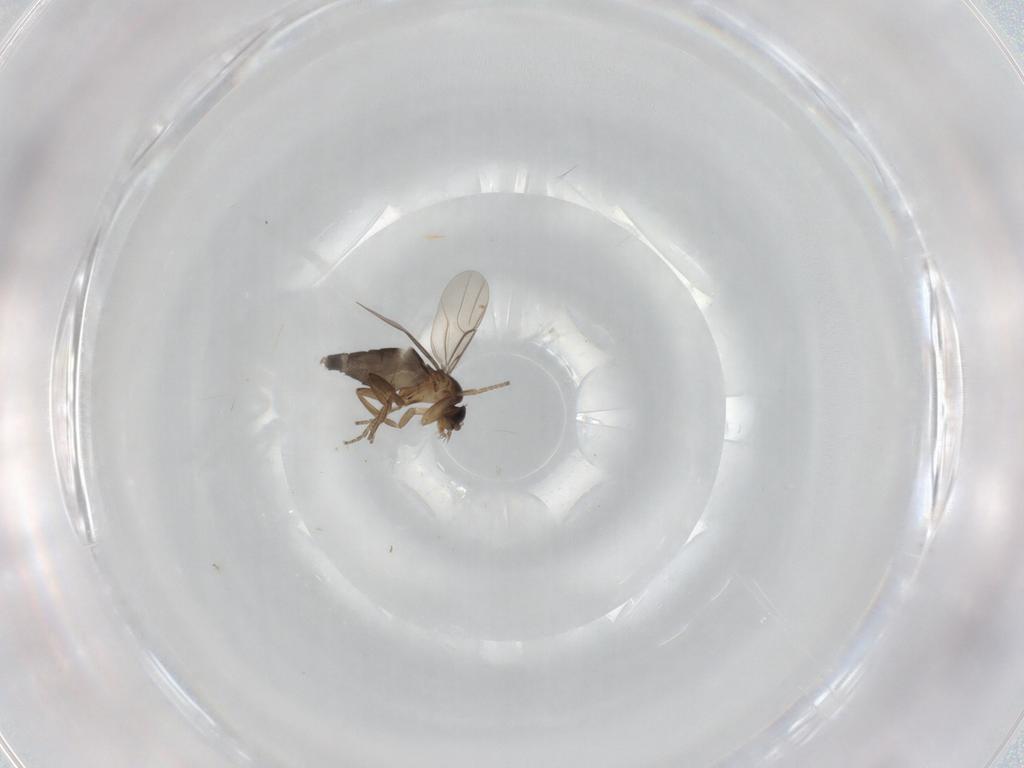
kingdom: Animalia
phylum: Arthropoda
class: Insecta
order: Diptera
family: Phoridae
